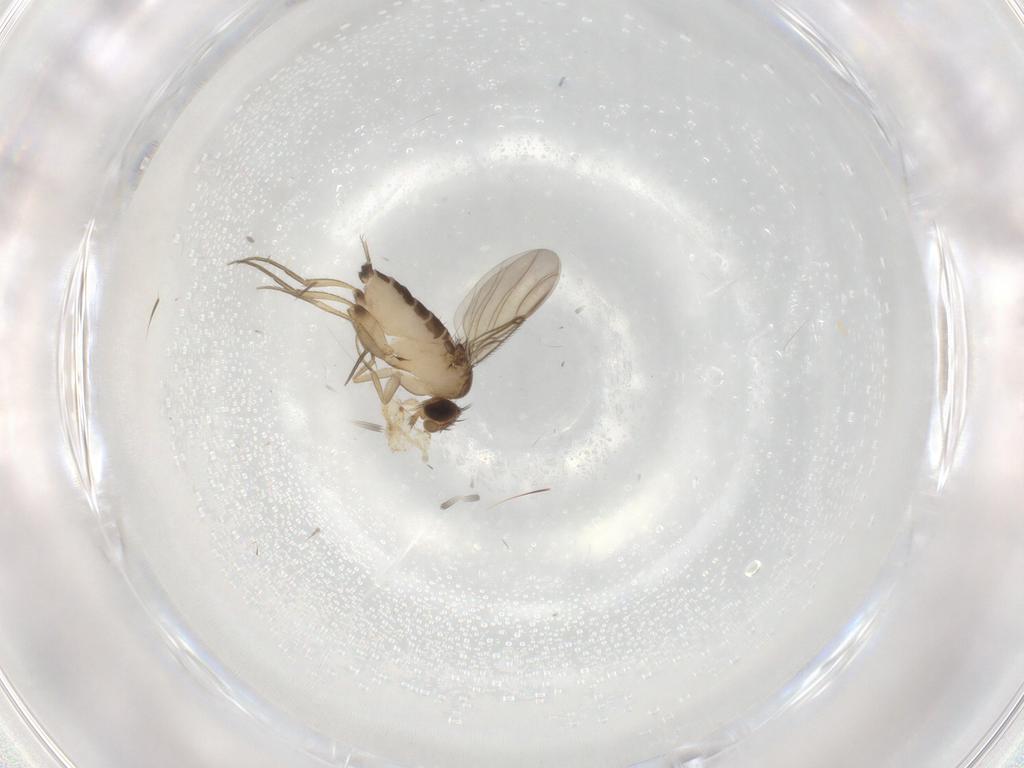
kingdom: Animalia
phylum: Arthropoda
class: Insecta
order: Diptera
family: Phoridae
